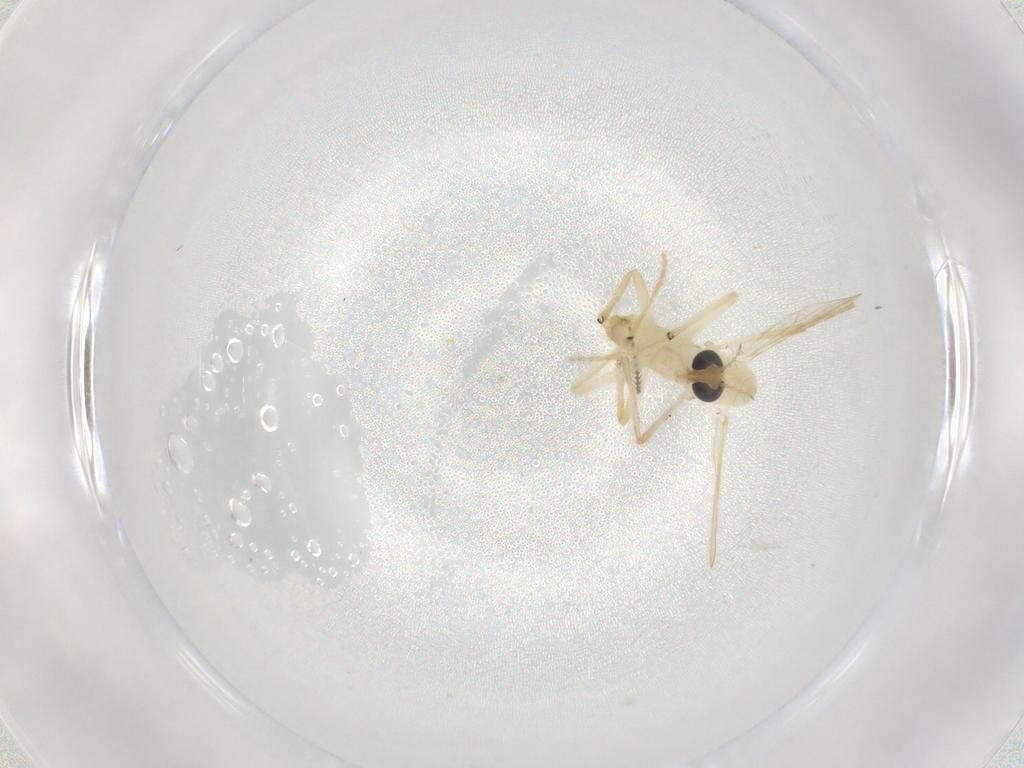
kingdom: Animalia
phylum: Arthropoda
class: Insecta
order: Diptera
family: Chironomidae
